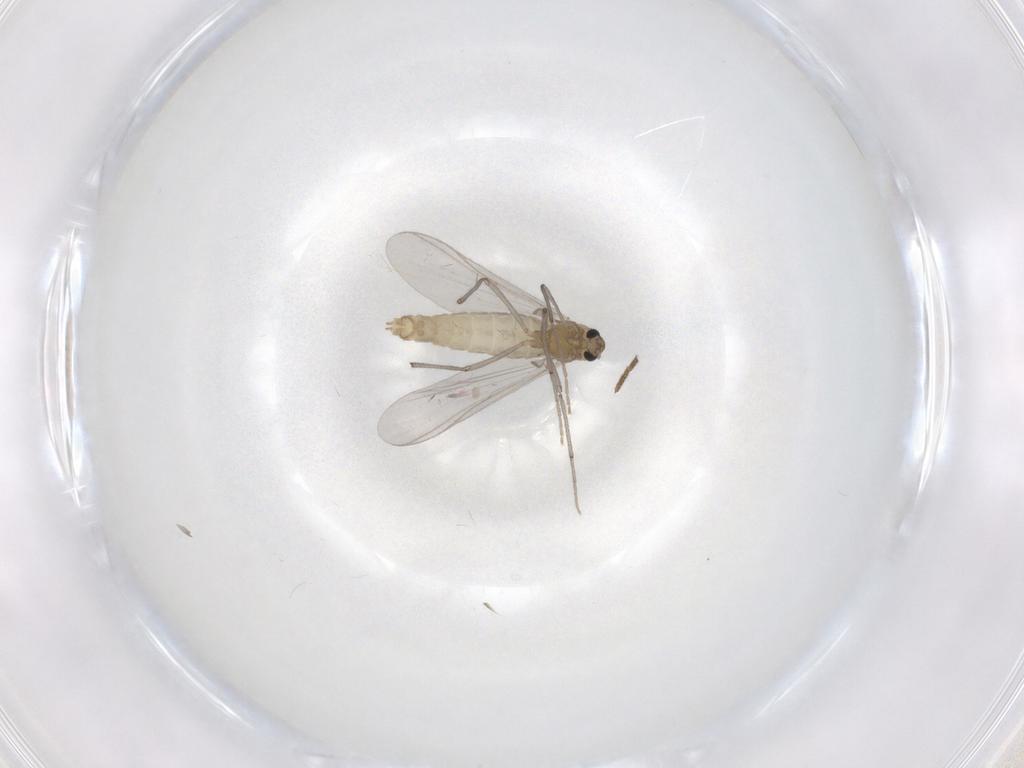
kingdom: Animalia
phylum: Arthropoda
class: Insecta
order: Diptera
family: Chironomidae
